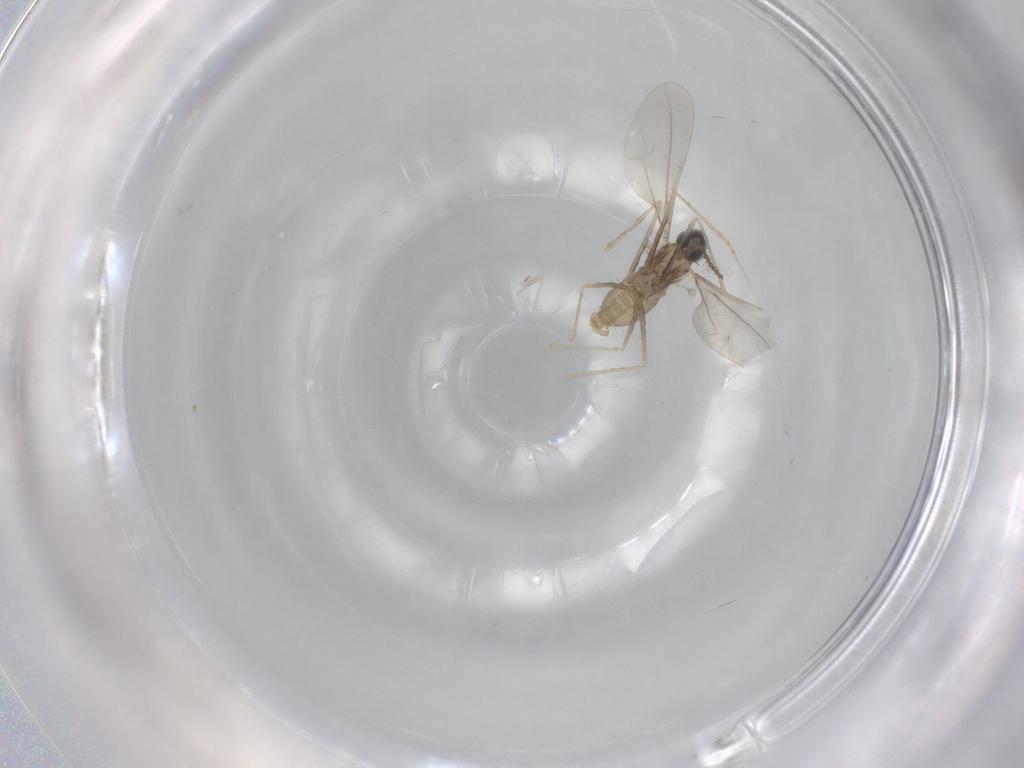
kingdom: Animalia
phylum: Arthropoda
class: Insecta
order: Diptera
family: Cecidomyiidae
